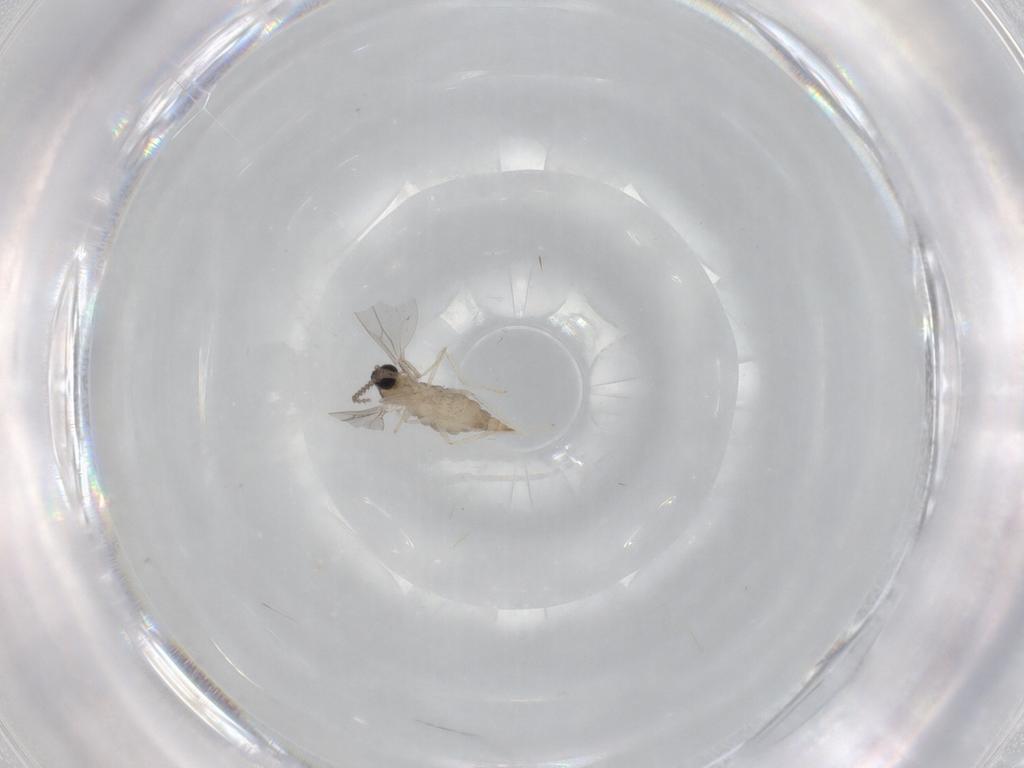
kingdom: Animalia
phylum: Arthropoda
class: Insecta
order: Diptera
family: Cecidomyiidae
